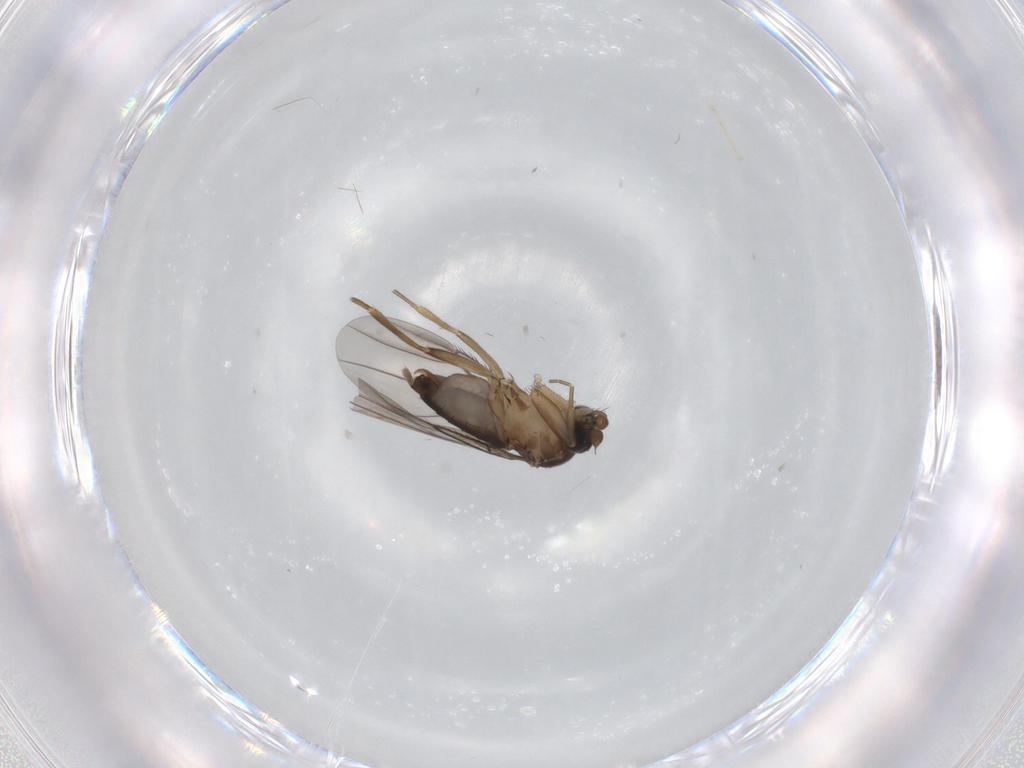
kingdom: Animalia
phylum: Arthropoda
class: Insecta
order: Diptera
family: Phoridae
